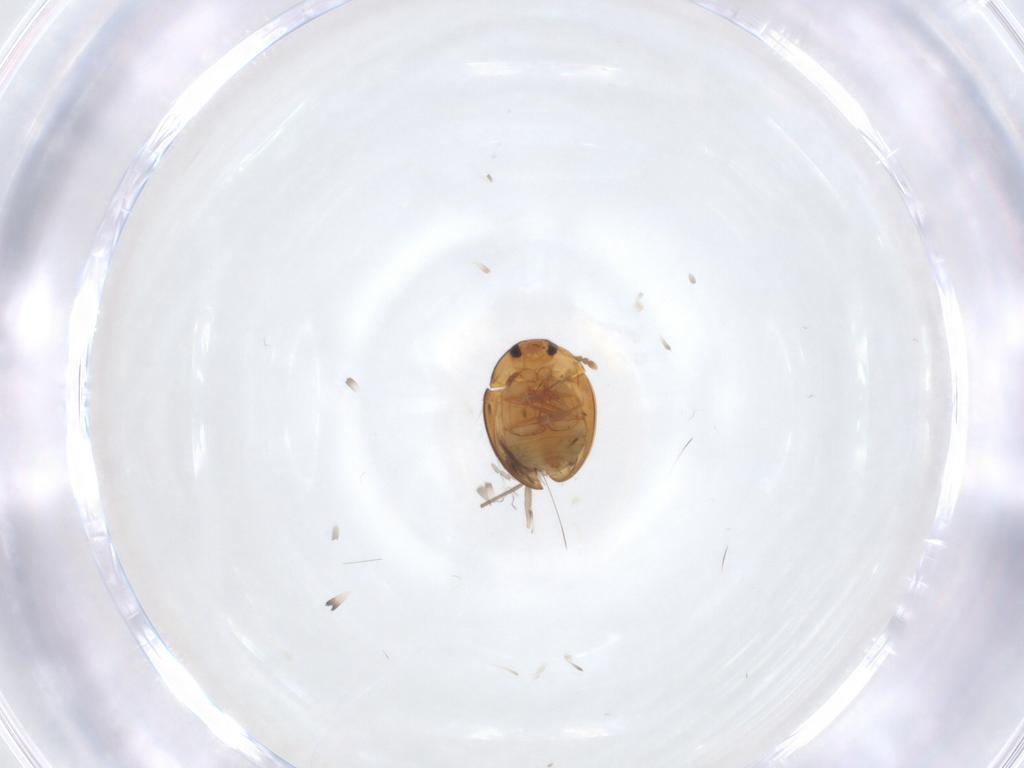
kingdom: Animalia
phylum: Arthropoda
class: Insecta
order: Coleoptera
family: Phalacridae
